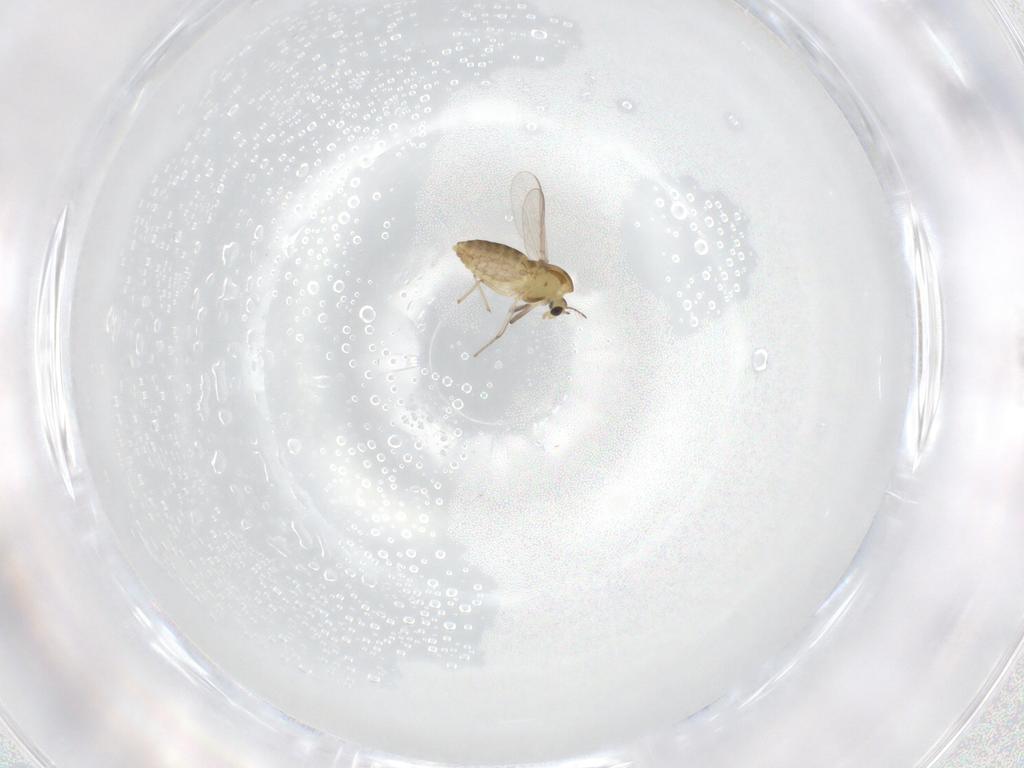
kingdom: Animalia
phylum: Arthropoda
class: Insecta
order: Diptera
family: Chironomidae
